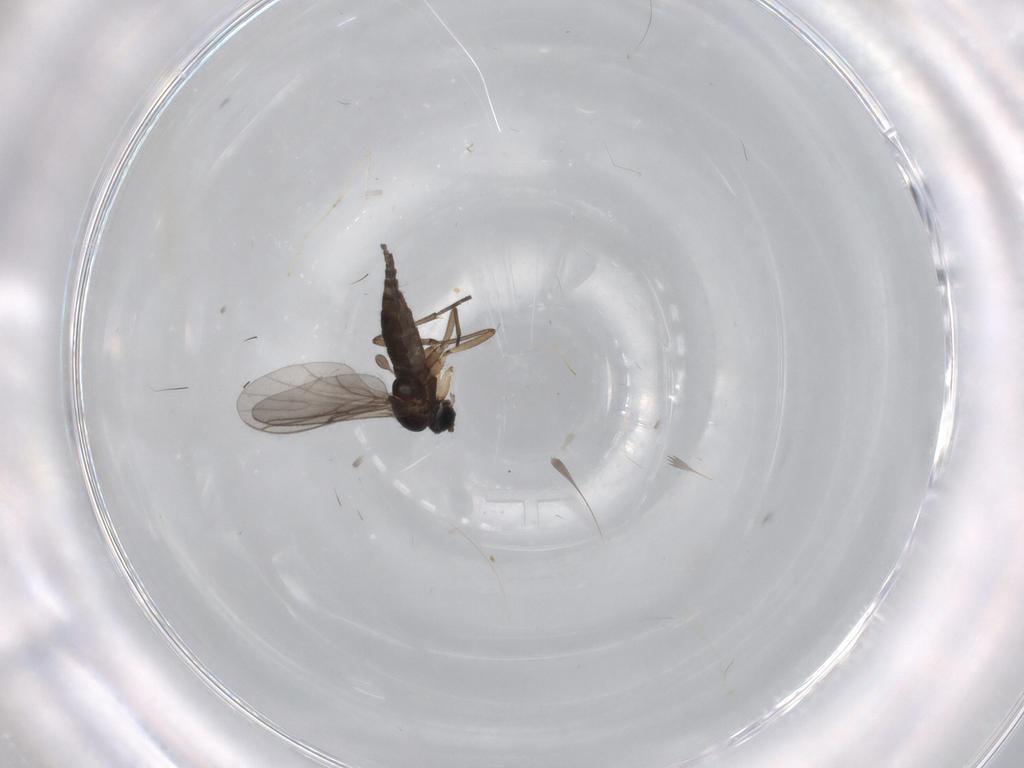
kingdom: Animalia
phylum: Arthropoda
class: Insecta
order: Diptera
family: Sciaridae
